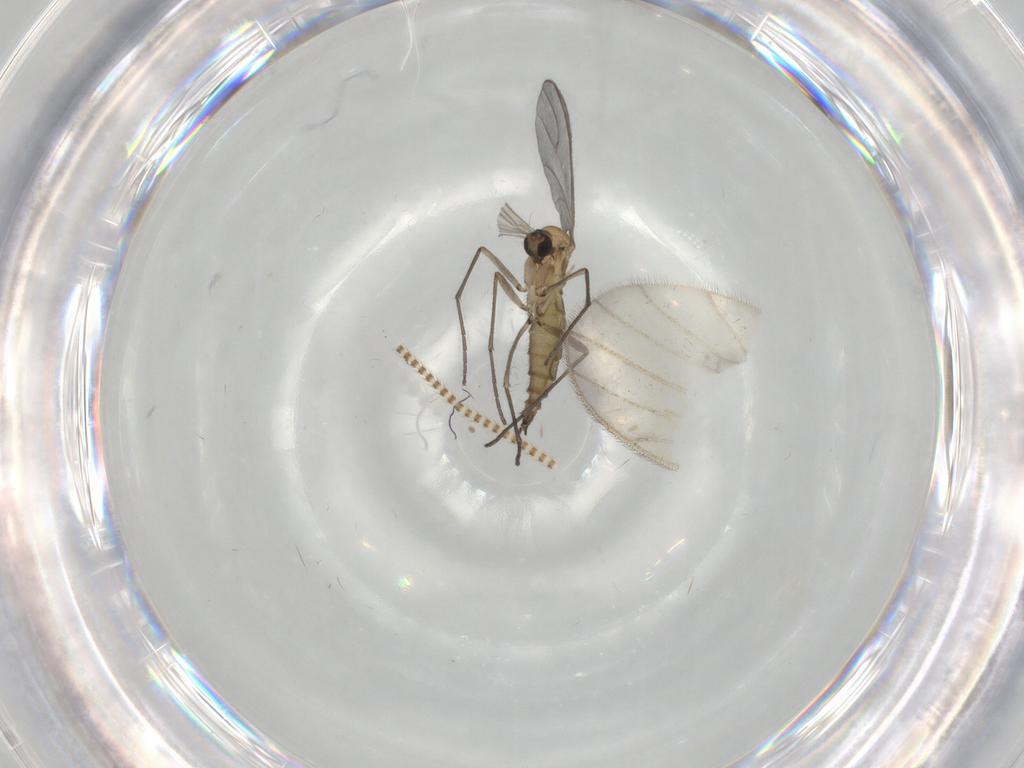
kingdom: Animalia
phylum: Arthropoda
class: Insecta
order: Diptera
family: Sciaridae
